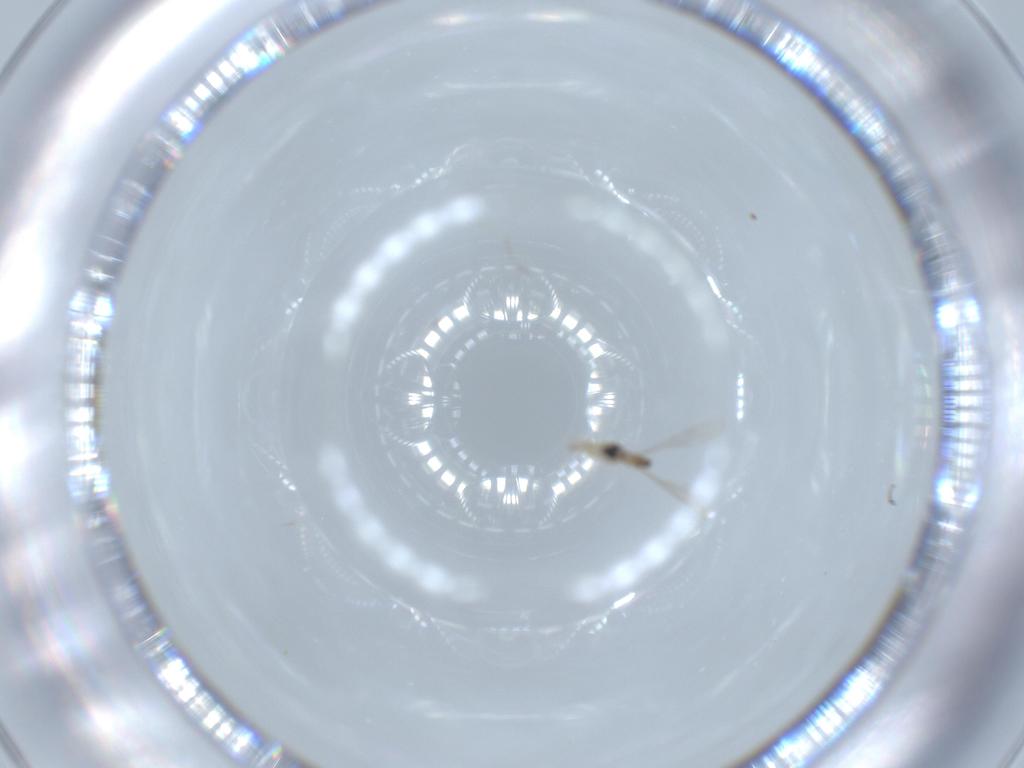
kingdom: Animalia
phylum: Arthropoda
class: Insecta
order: Diptera
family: Cecidomyiidae
